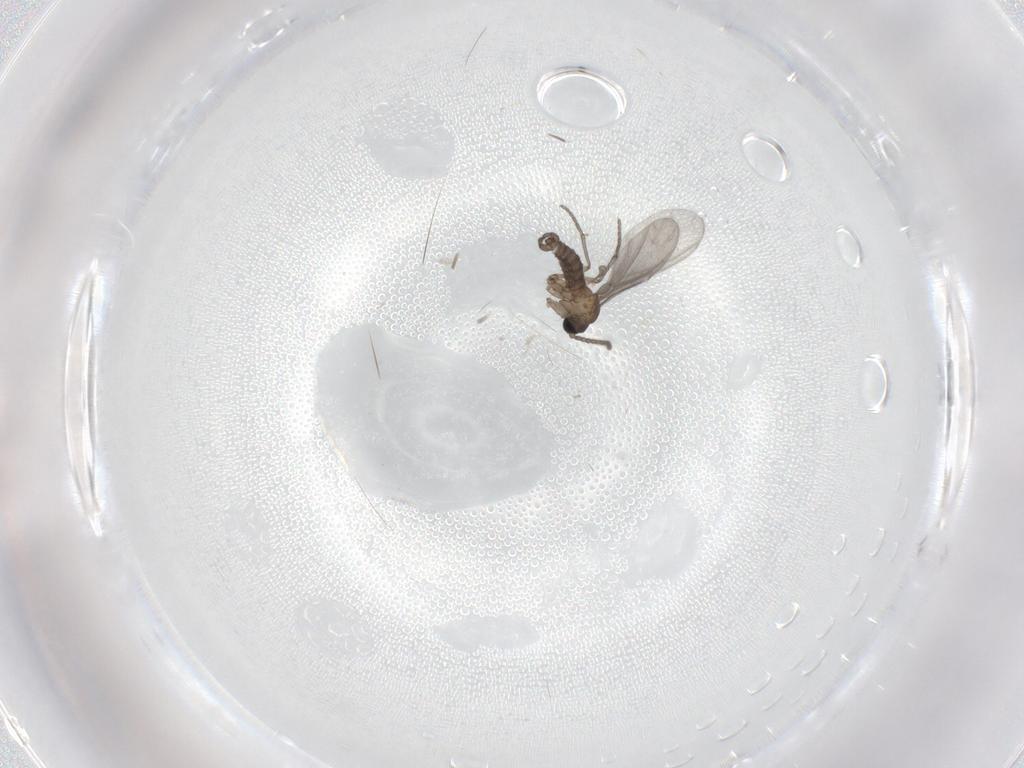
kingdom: Animalia
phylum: Arthropoda
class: Insecta
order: Diptera
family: Sciaridae
